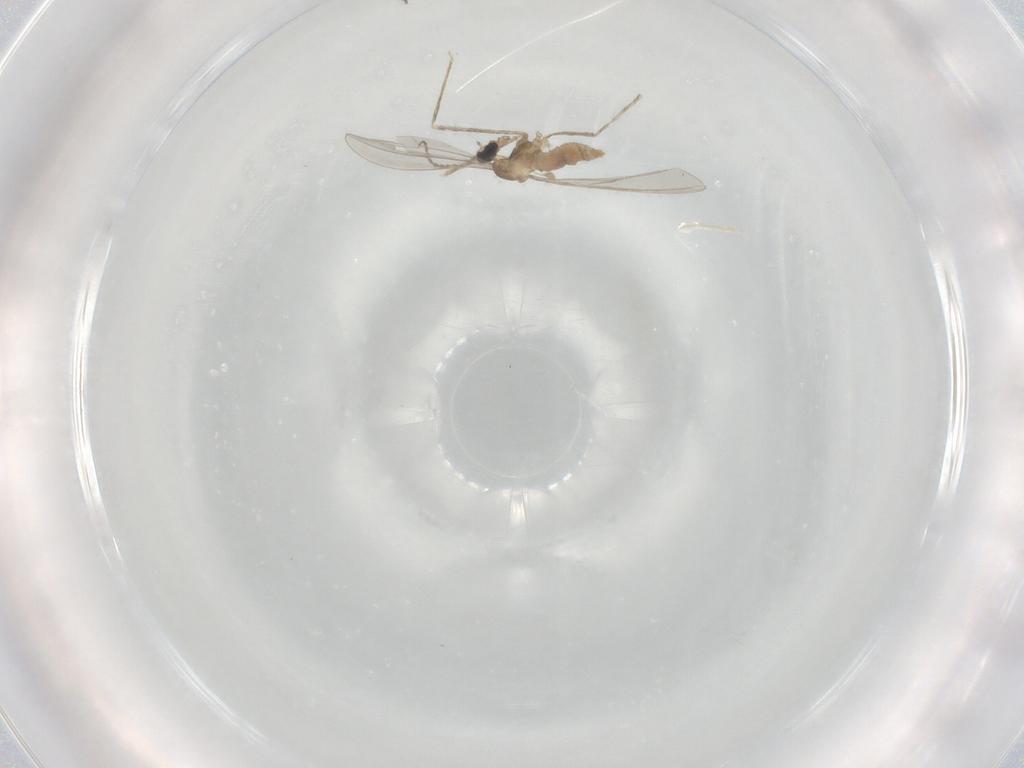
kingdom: Animalia
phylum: Arthropoda
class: Insecta
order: Diptera
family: Cecidomyiidae
